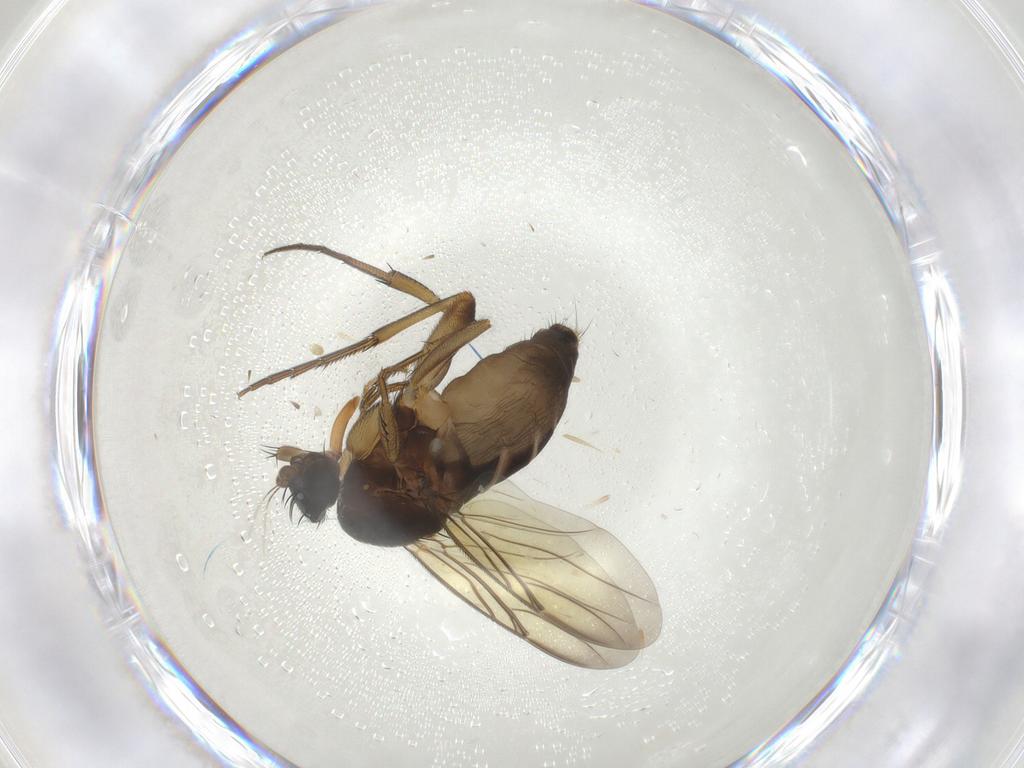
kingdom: Animalia
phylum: Arthropoda
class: Insecta
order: Diptera
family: Phoridae
